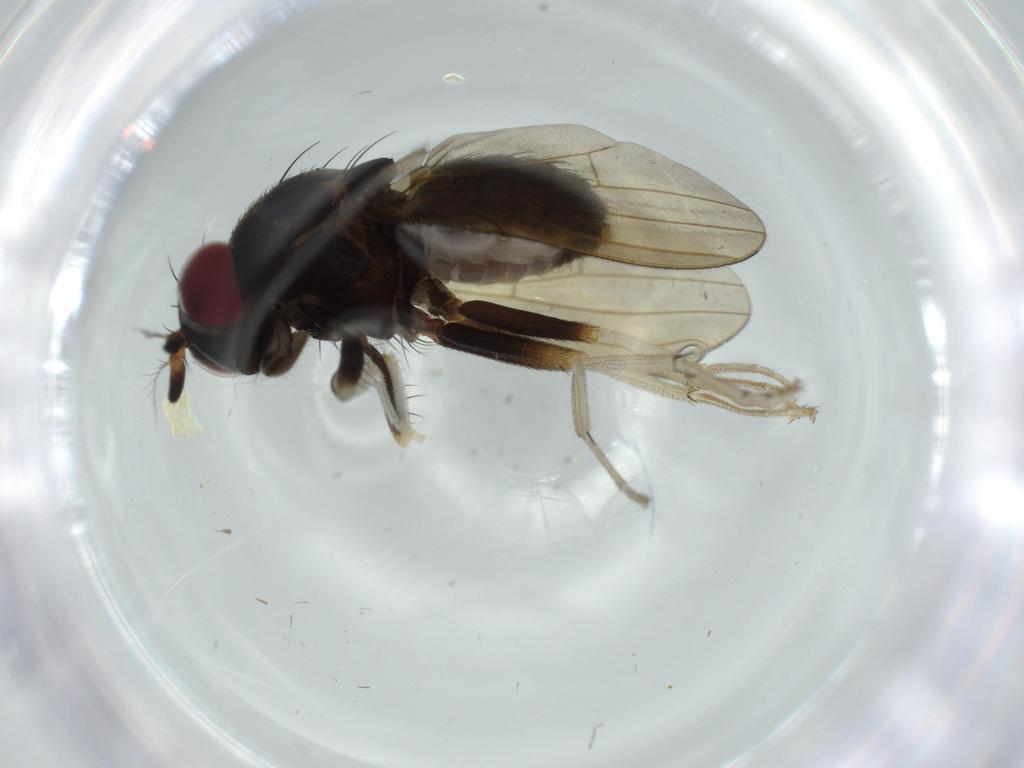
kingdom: Animalia
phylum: Arthropoda
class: Insecta
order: Diptera
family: Lauxaniidae
